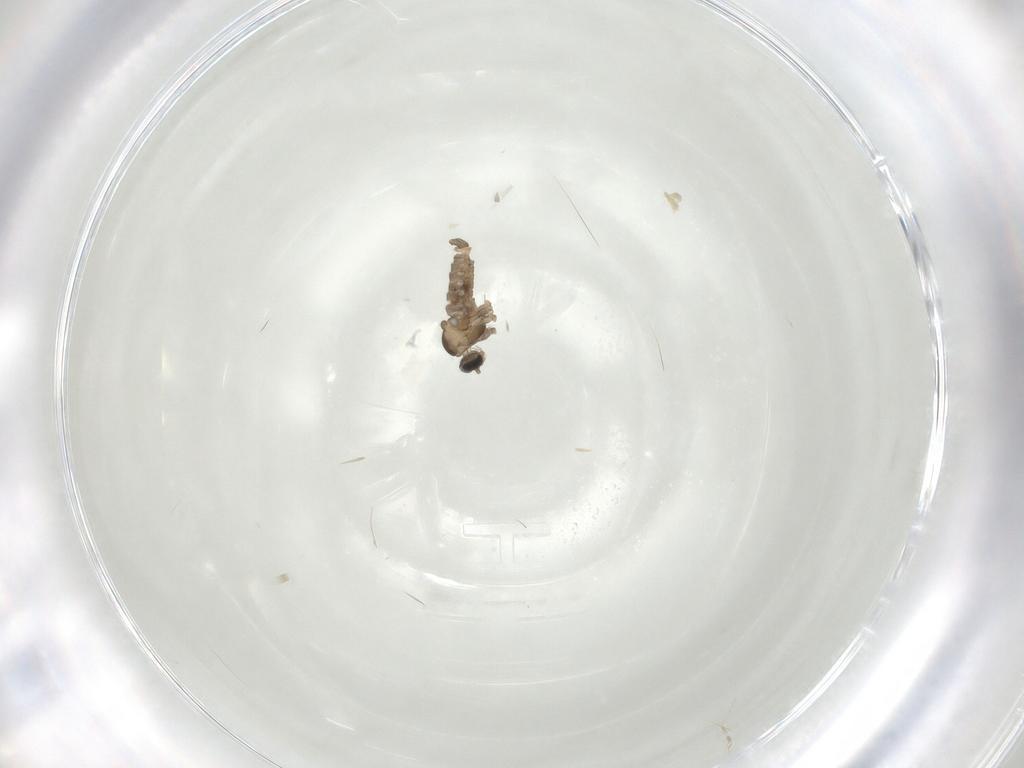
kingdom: Animalia
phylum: Arthropoda
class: Insecta
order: Diptera
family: Cecidomyiidae
